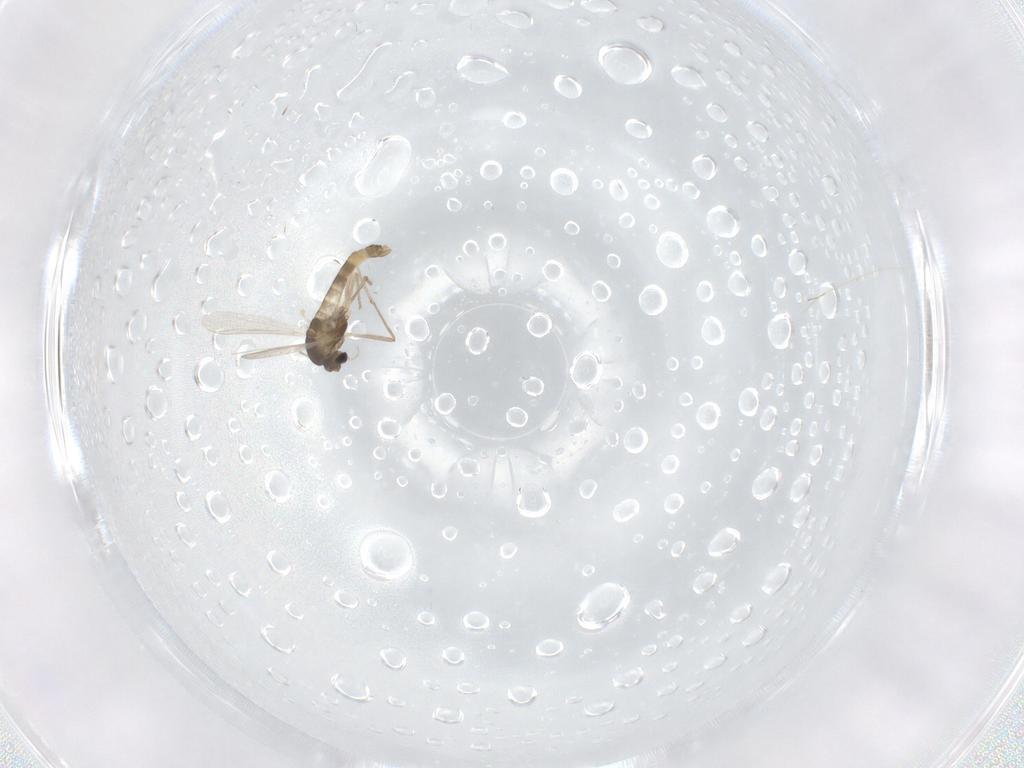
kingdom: Animalia
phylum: Arthropoda
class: Insecta
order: Diptera
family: Chironomidae
